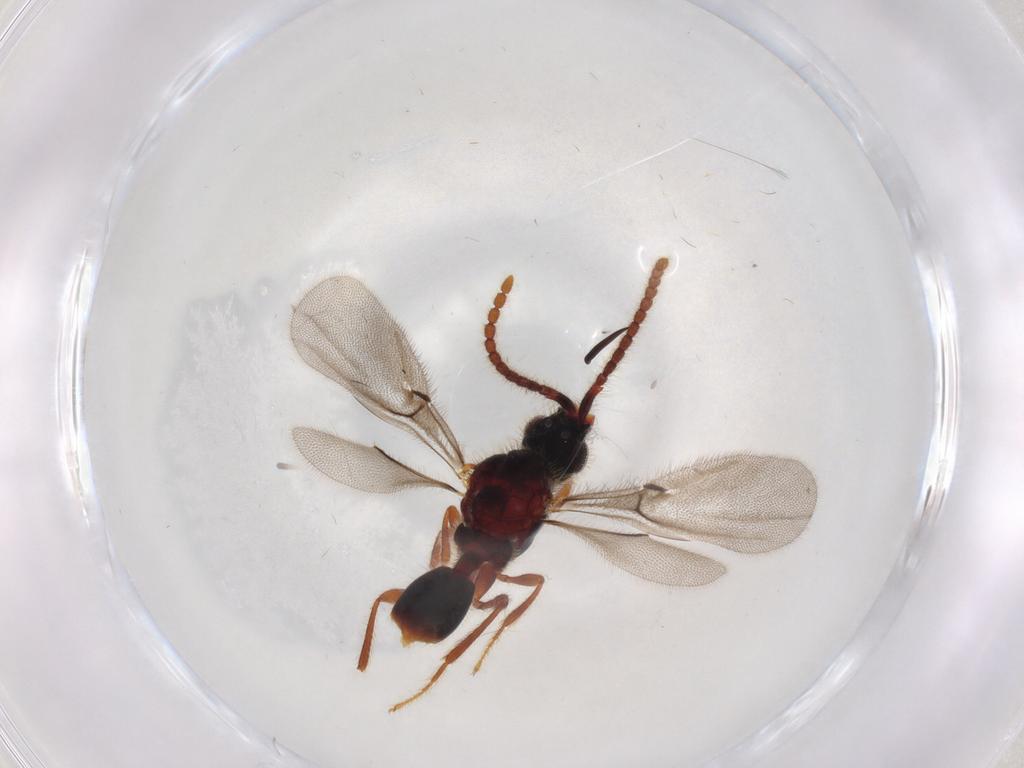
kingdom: Animalia
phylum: Arthropoda
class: Insecta
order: Hymenoptera
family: Diapriidae
